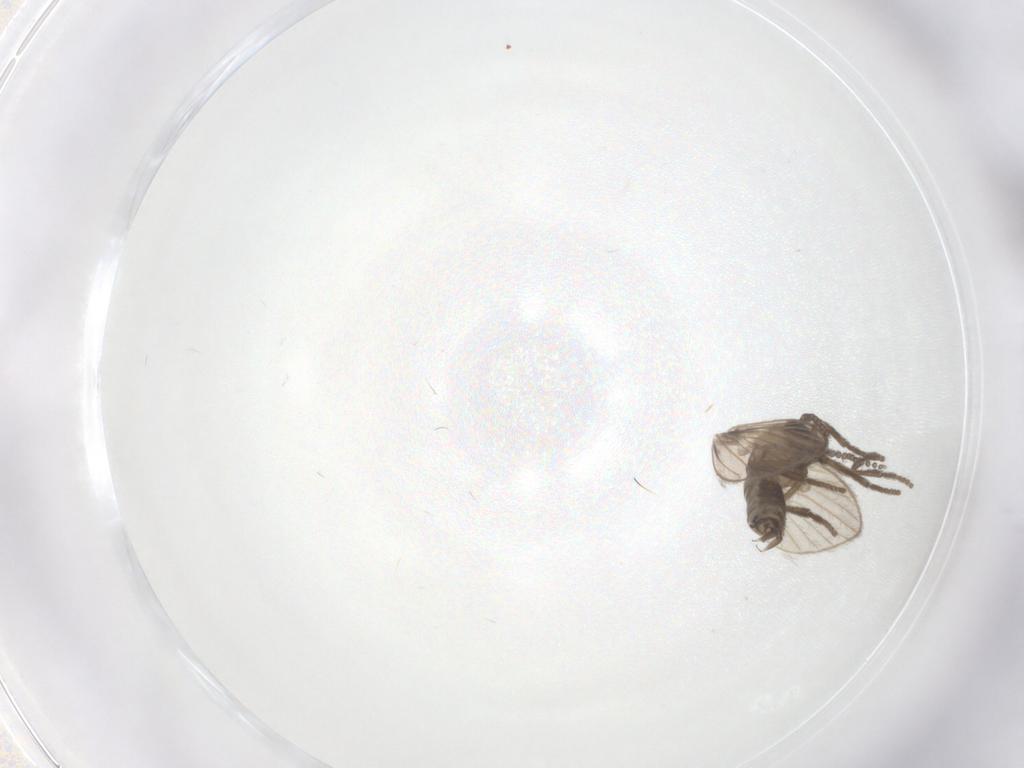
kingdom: Animalia
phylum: Arthropoda
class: Insecta
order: Diptera
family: Psychodidae
